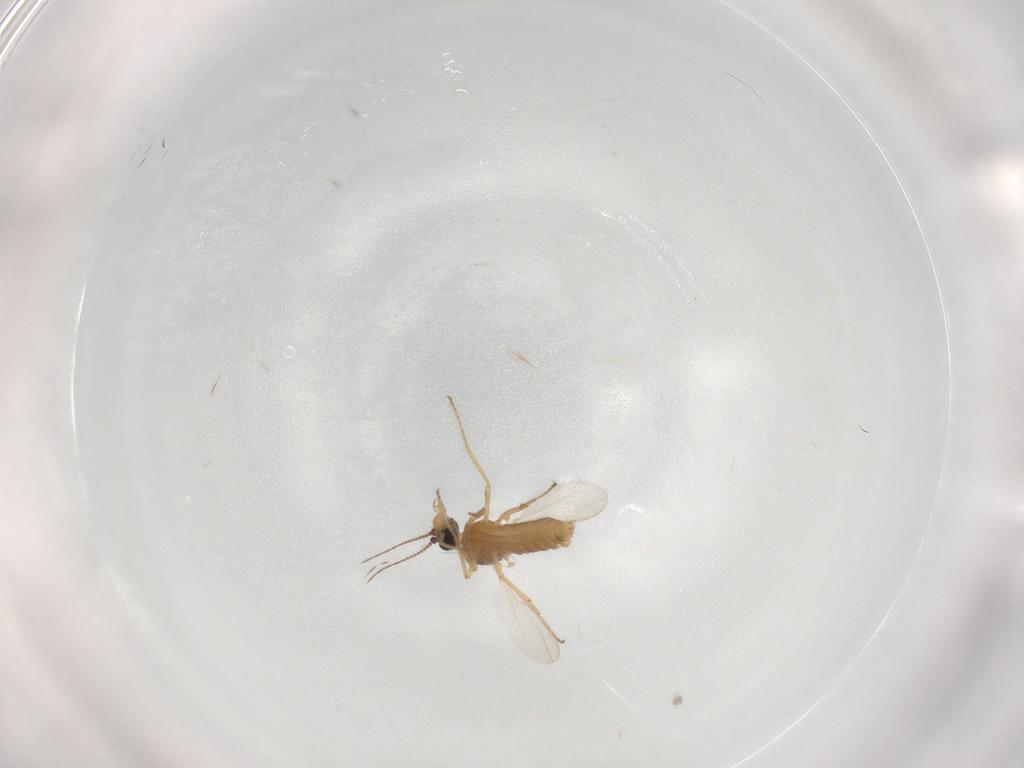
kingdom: Animalia
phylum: Arthropoda
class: Insecta
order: Diptera
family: Ceratopogonidae
